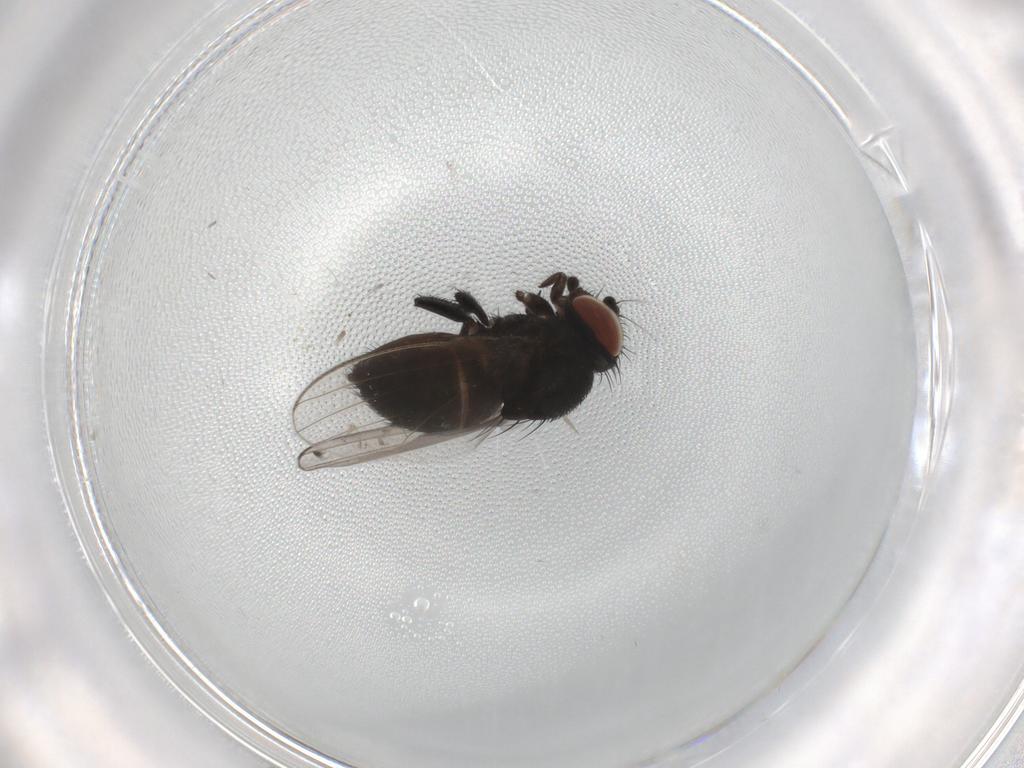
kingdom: Animalia
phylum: Arthropoda
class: Insecta
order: Diptera
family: Milichiidae
